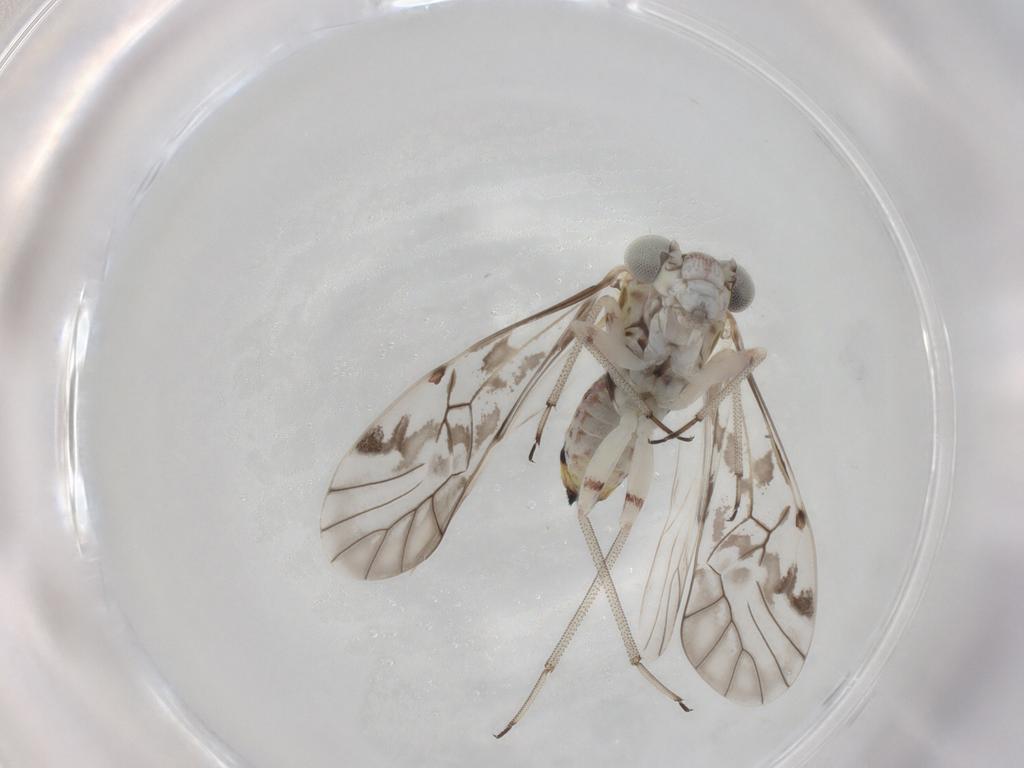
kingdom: Animalia
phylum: Arthropoda
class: Insecta
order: Psocodea
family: Psocidae
